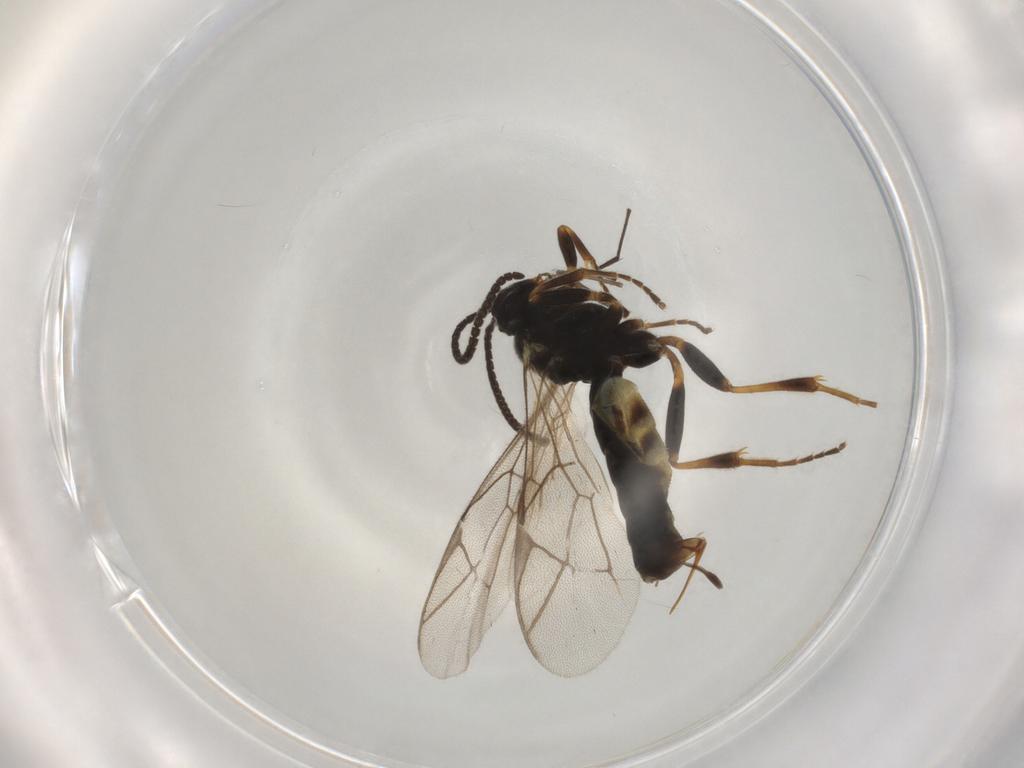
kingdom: Animalia
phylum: Arthropoda
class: Insecta
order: Hymenoptera
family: Ichneumonidae
